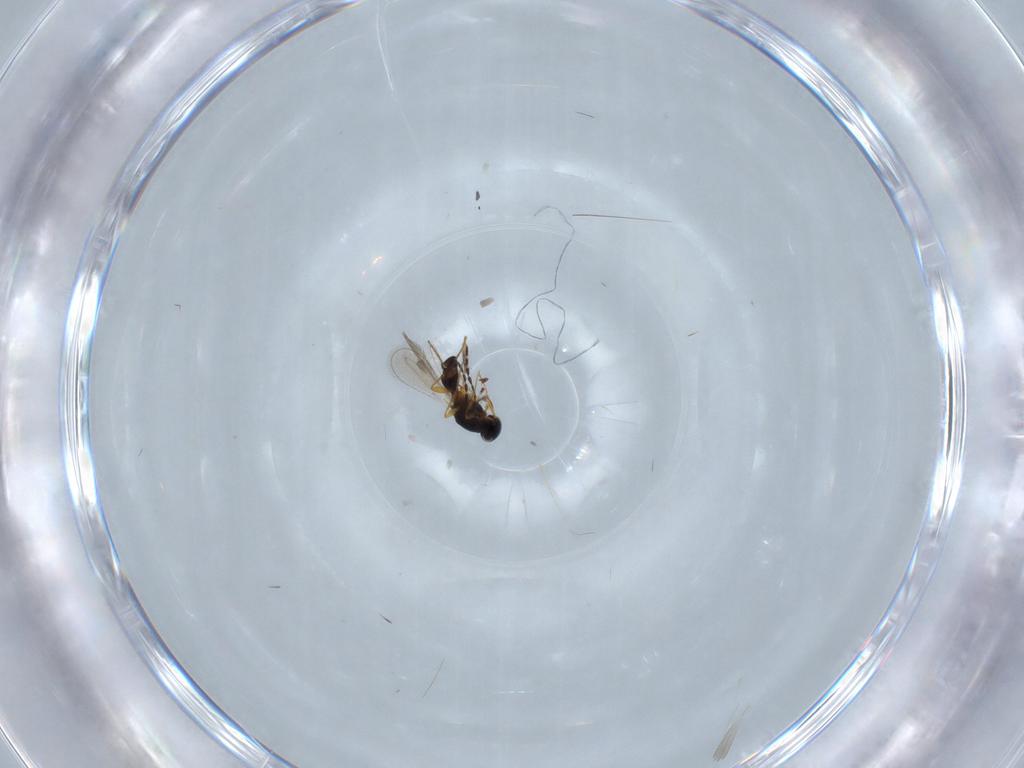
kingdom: Animalia
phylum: Arthropoda
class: Insecta
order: Hymenoptera
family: Platygastridae
